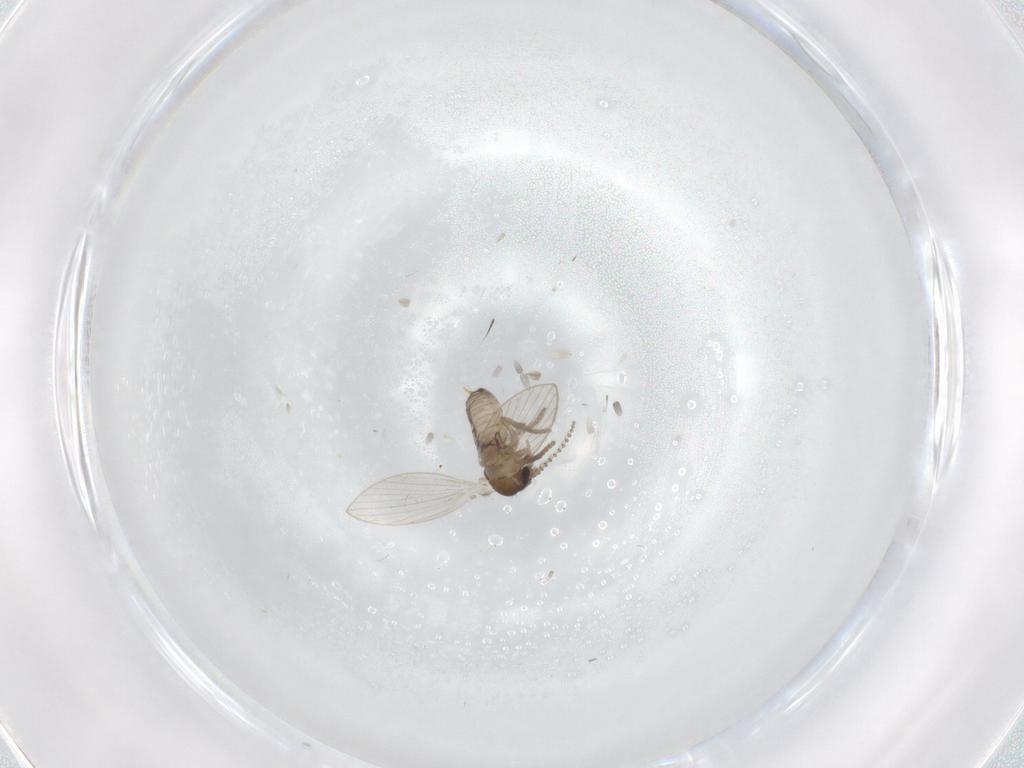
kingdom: Animalia
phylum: Arthropoda
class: Insecta
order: Diptera
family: Psychodidae
